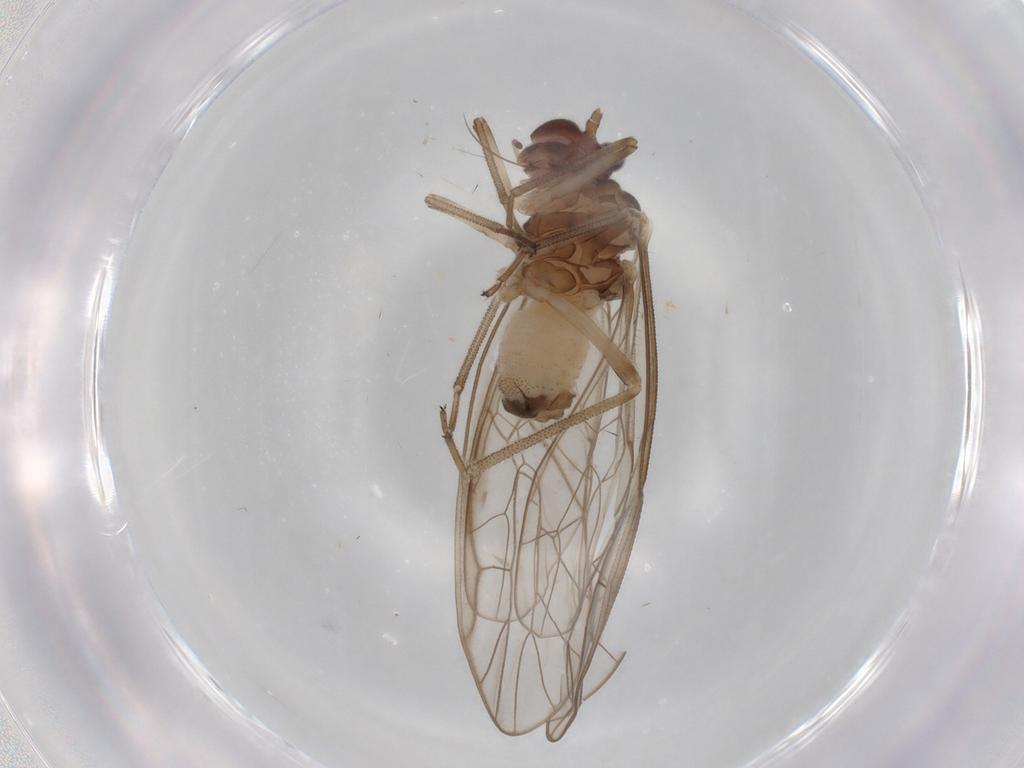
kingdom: Animalia
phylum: Arthropoda
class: Insecta
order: Psocodea
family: Stenopsocidae
